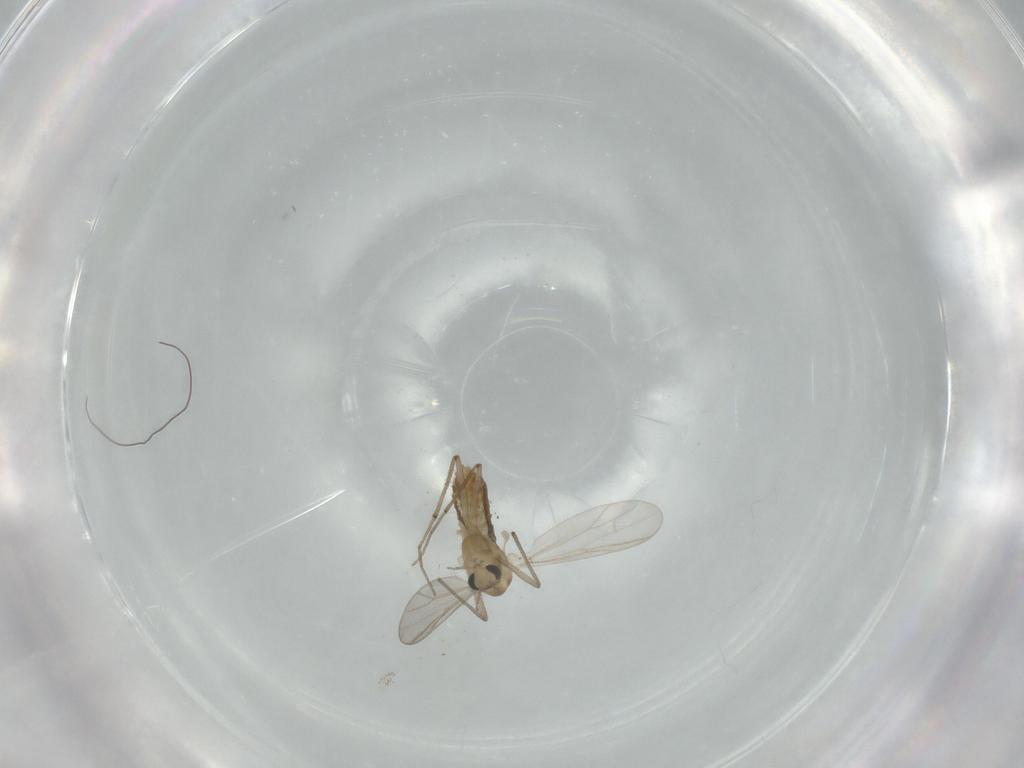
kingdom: Animalia
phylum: Arthropoda
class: Insecta
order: Diptera
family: Chironomidae
